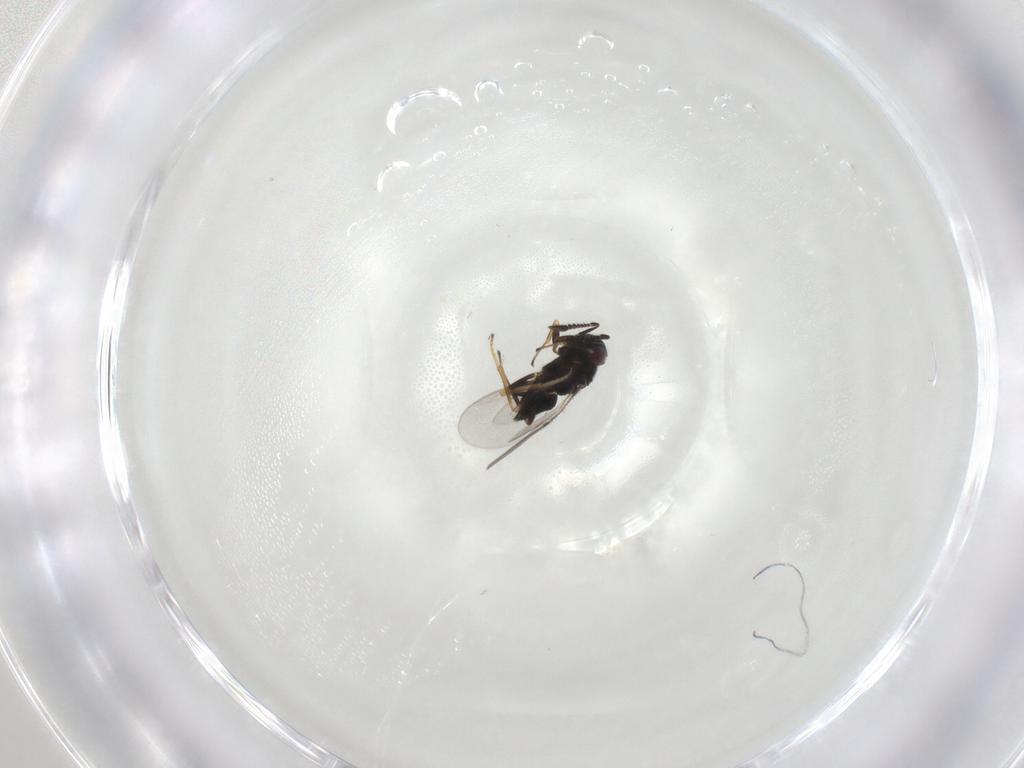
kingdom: Animalia
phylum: Arthropoda
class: Insecta
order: Hymenoptera
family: Encyrtidae
